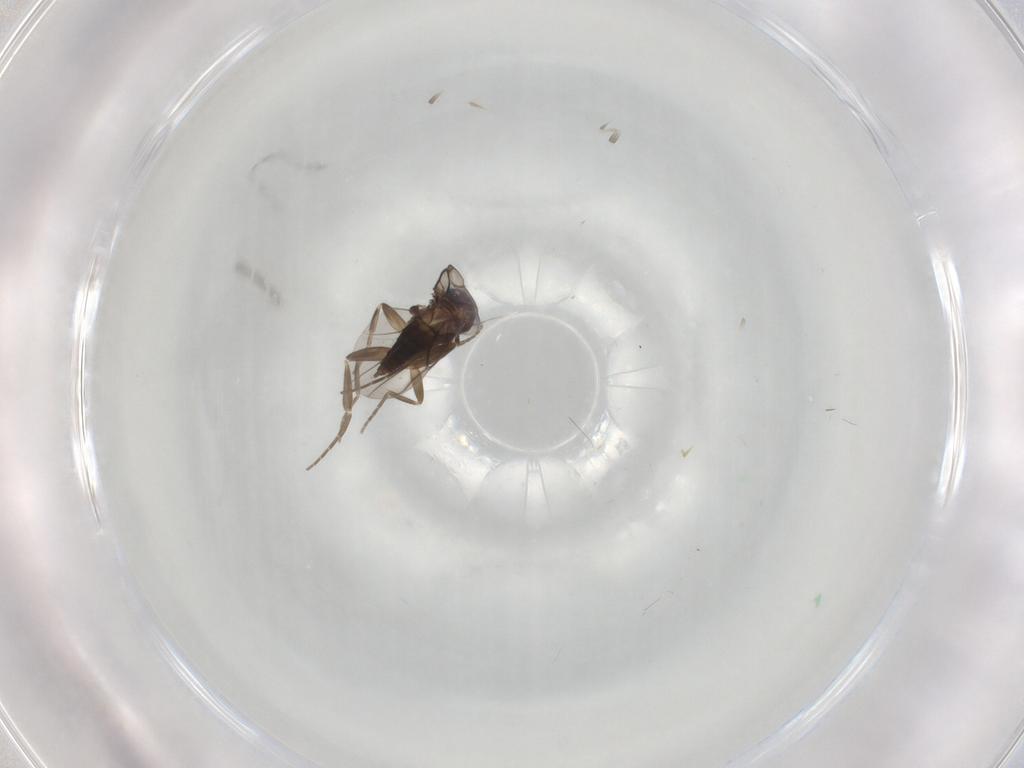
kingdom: Animalia
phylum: Arthropoda
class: Insecta
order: Diptera
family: Phoridae
